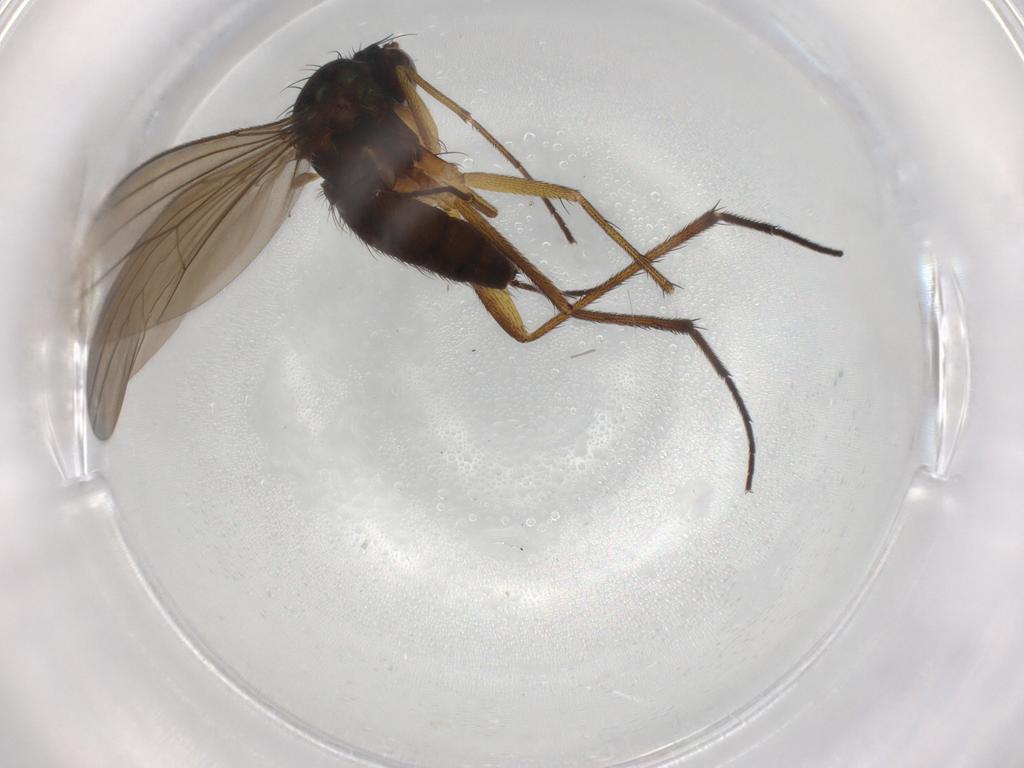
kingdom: Animalia
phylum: Arthropoda
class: Insecta
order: Diptera
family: Dolichopodidae
